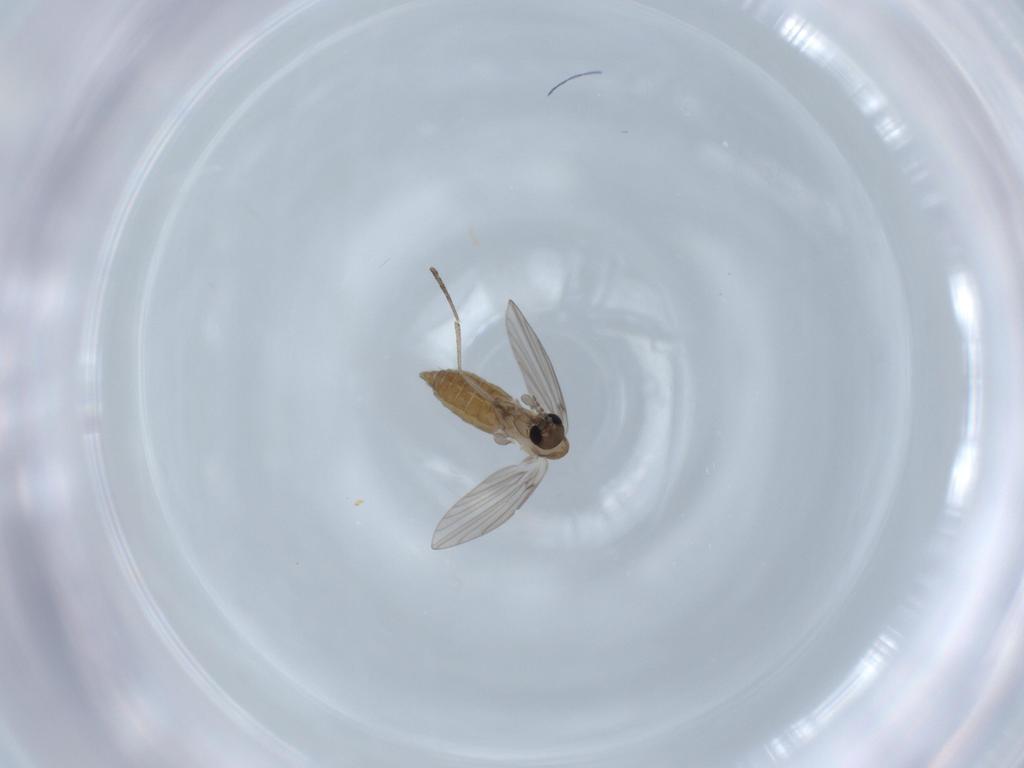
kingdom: Animalia
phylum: Arthropoda
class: Insecta
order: Diptera
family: Psychodidae
